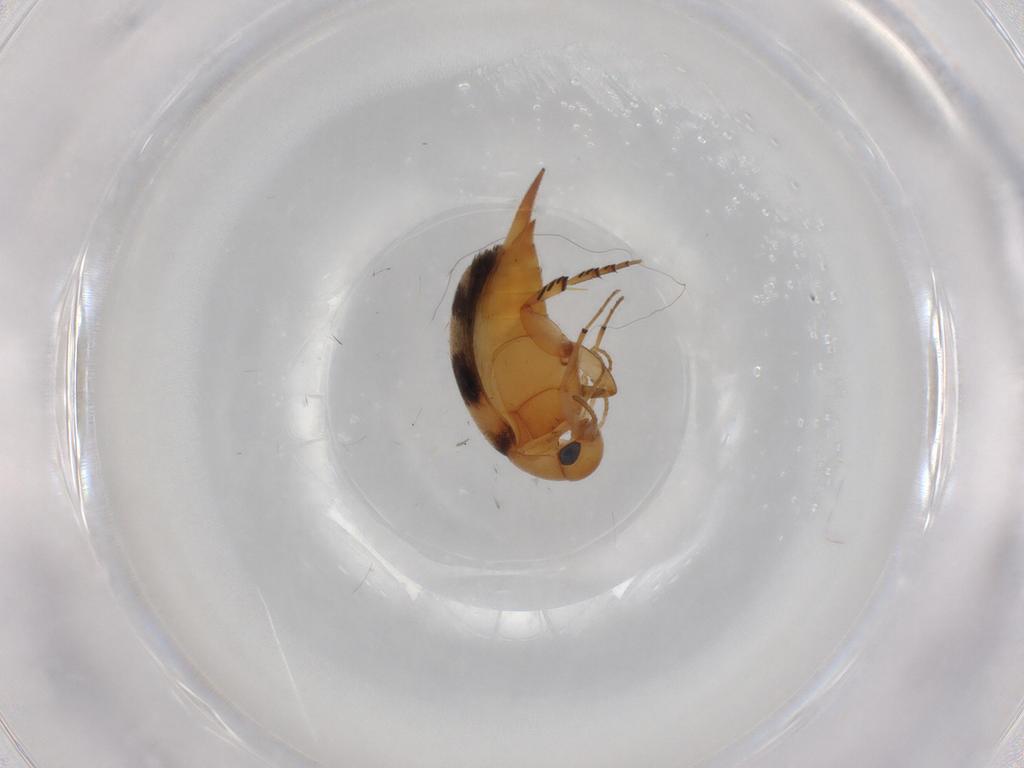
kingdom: Animalia
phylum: Arthropoda
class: Insecta
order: Coleoptera
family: Mordellidae
